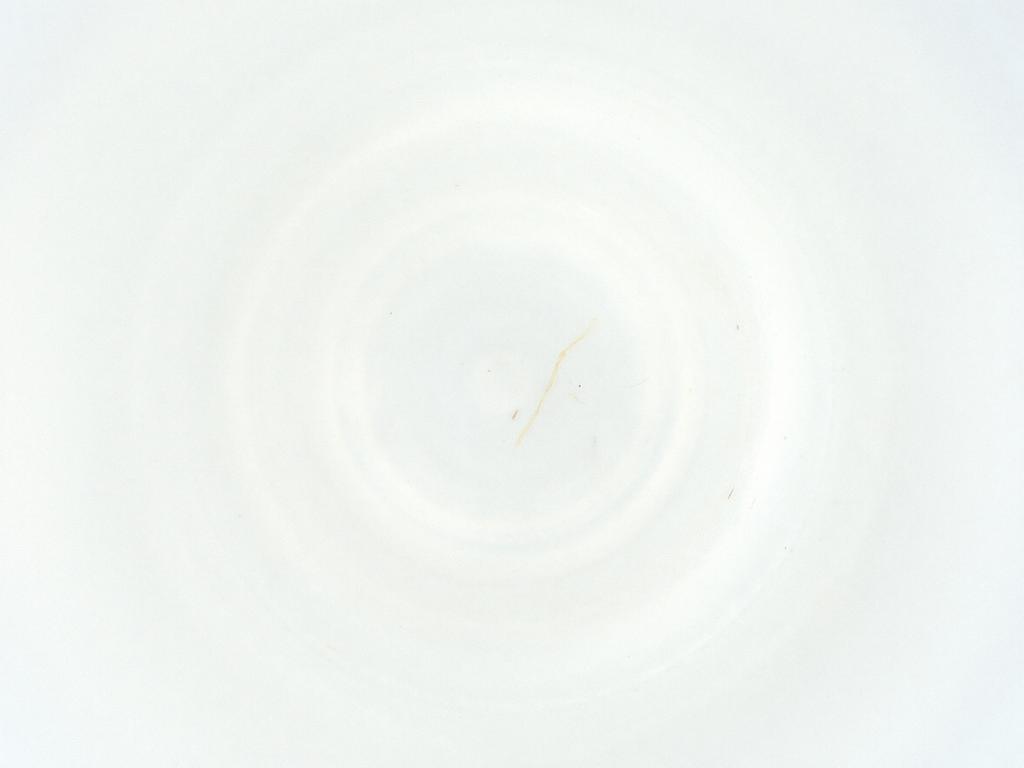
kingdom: Animalia
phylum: Arthropoda
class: Insecta
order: Thysanoptera
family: Thripidae
